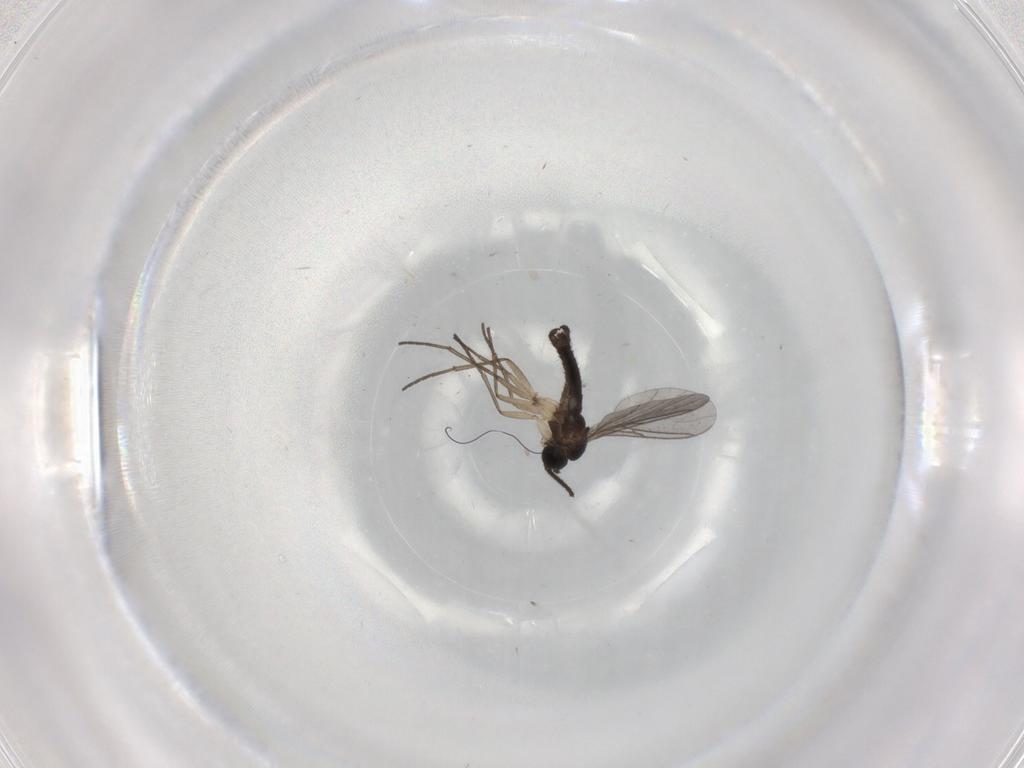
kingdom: Animalia
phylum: Arthropoda
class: Insecta
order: Diptera
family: Sciaridae
